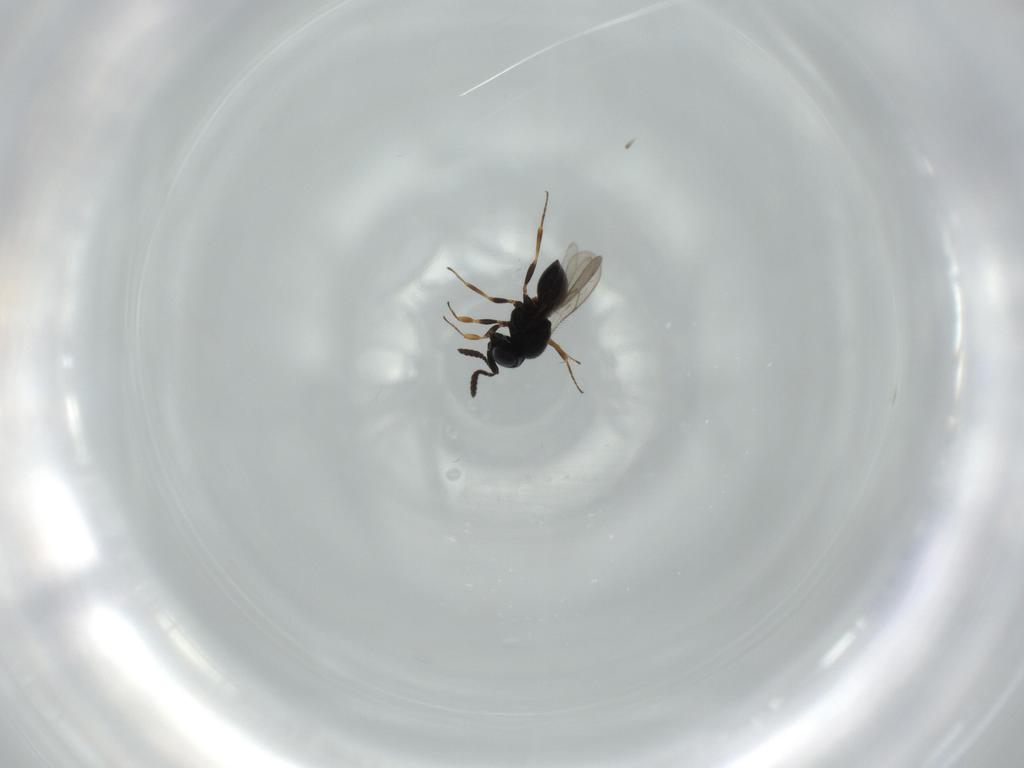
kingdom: Animalia
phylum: Arthropoda
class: Insecta
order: Hymenoptera
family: Scelionidae
